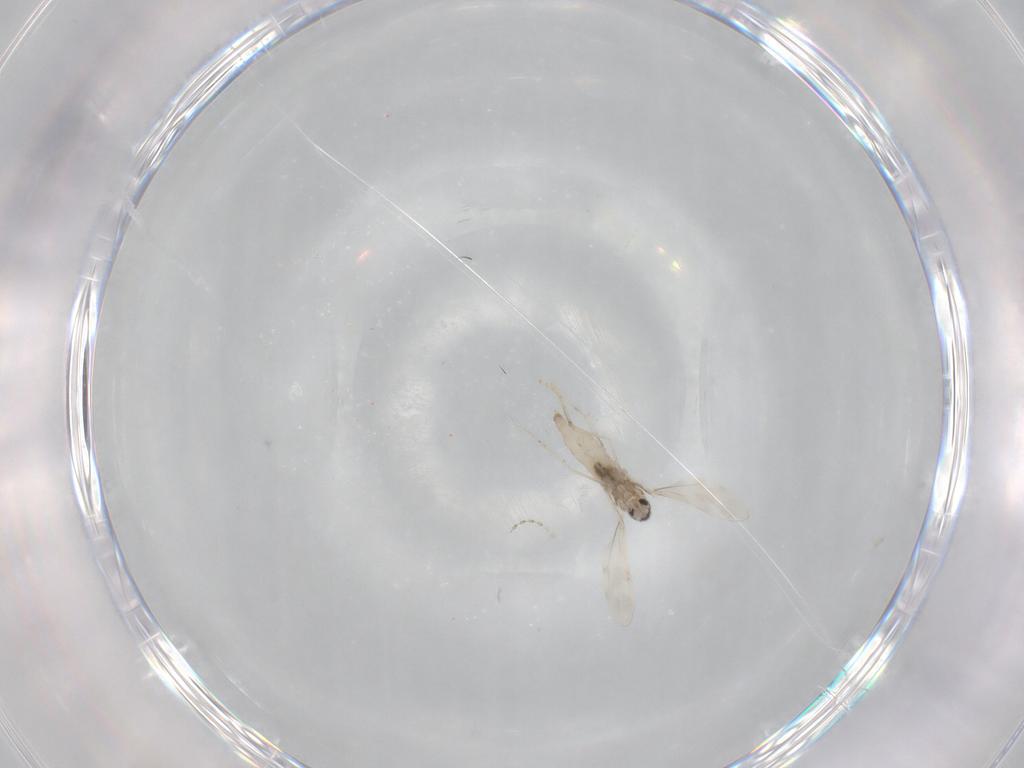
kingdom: Animalia
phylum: Arthropoda
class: Insecta
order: Diptera
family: Cecidomyiidae
